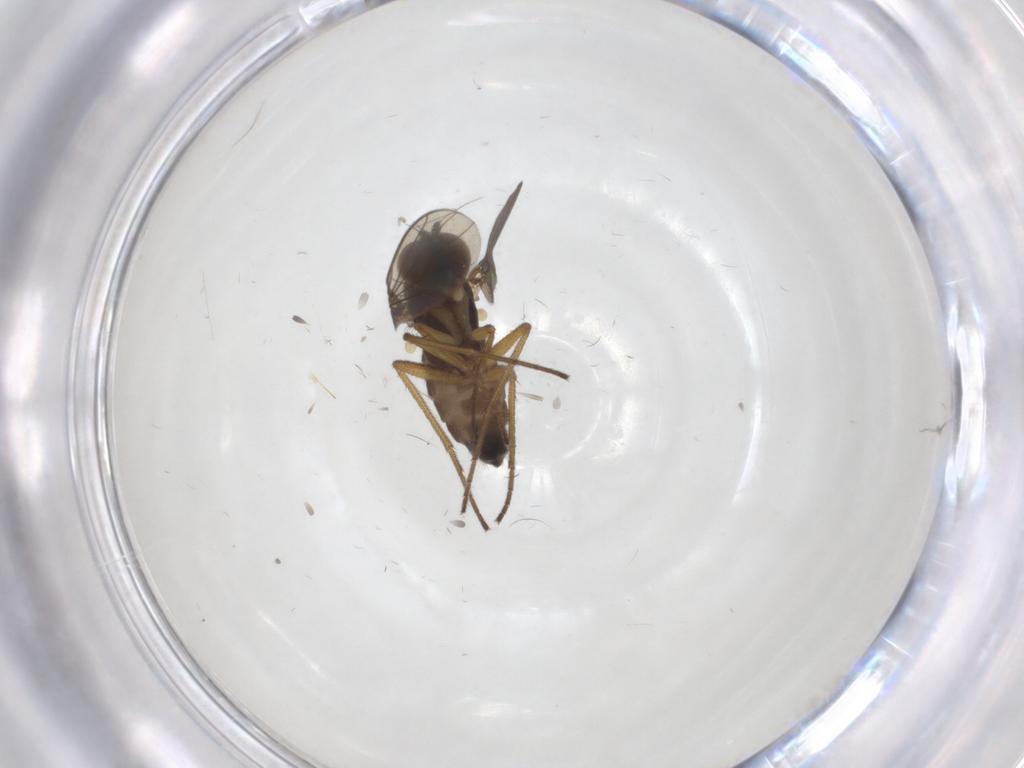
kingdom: Animalia
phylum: Arthropoda
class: Insecta
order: Diptera
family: Dolichopodidae
